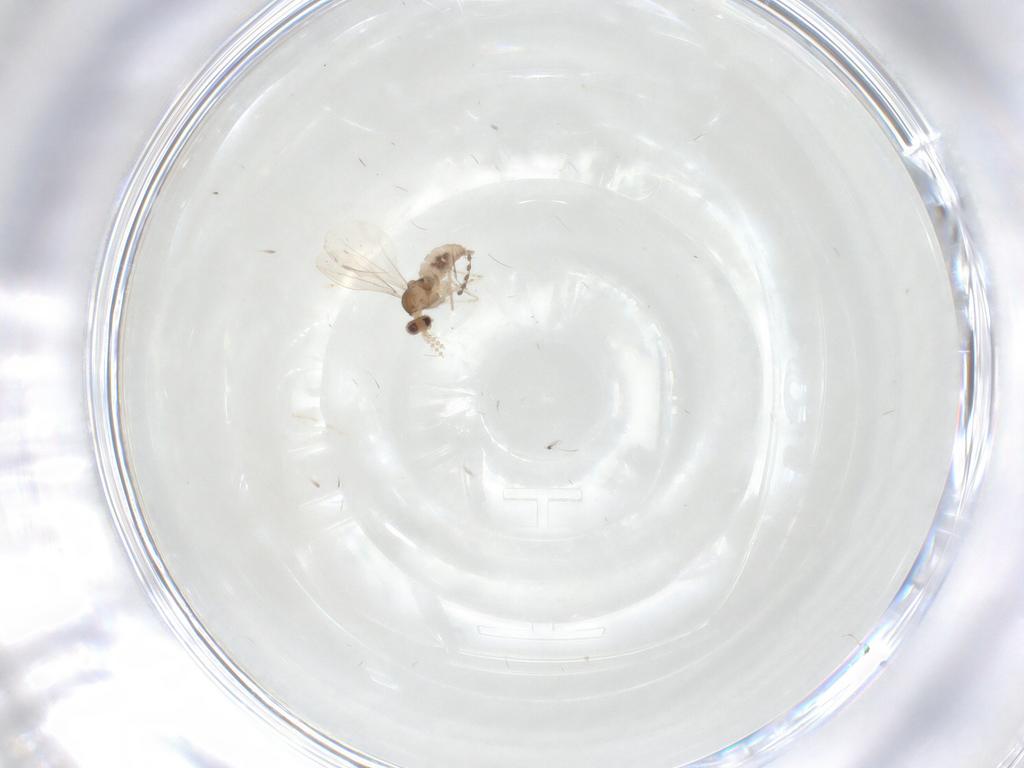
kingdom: Animalia
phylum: Arthropoda
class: Insecta
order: Diptera
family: Cecidomyiidae
